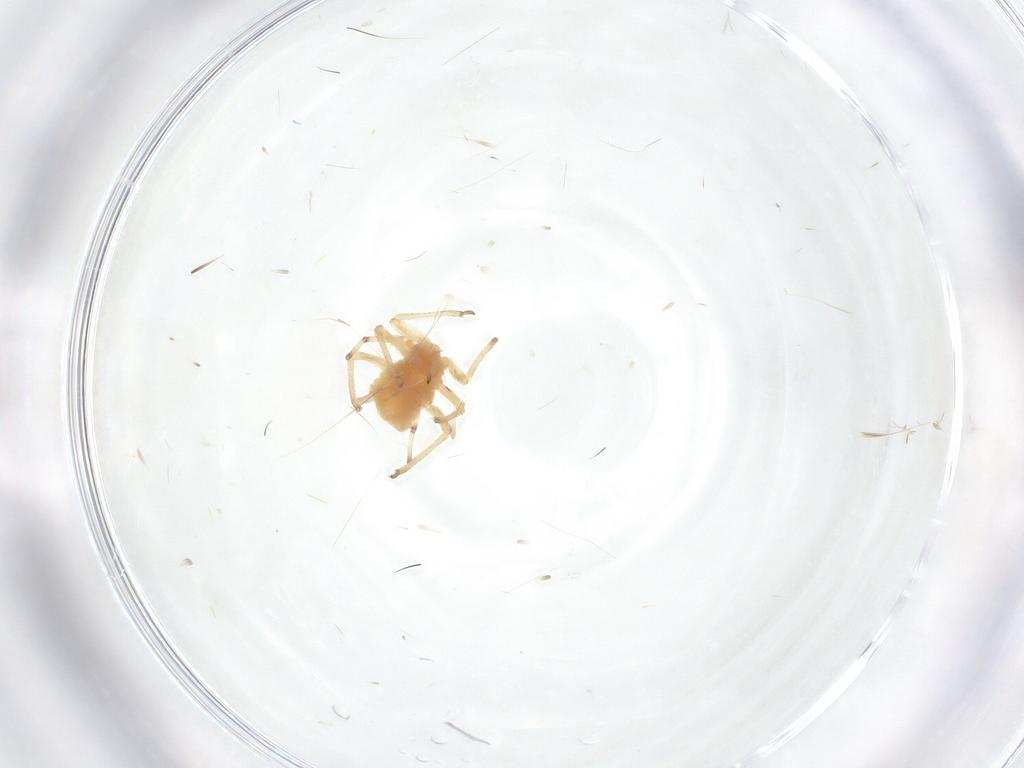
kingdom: Animalia
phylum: Arthropoda
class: Insecta
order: Hemiptera
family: Aphididae
